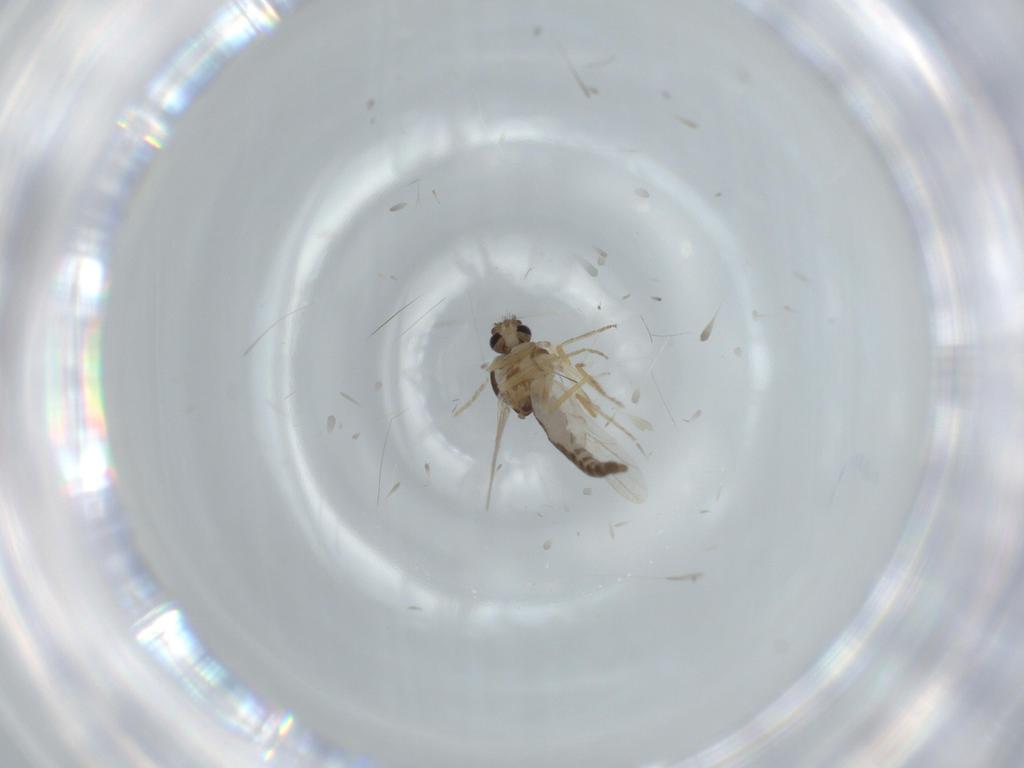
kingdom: Animalia
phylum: Arthropoda
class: Insecta
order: Diptera
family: Ceratopogonidae
